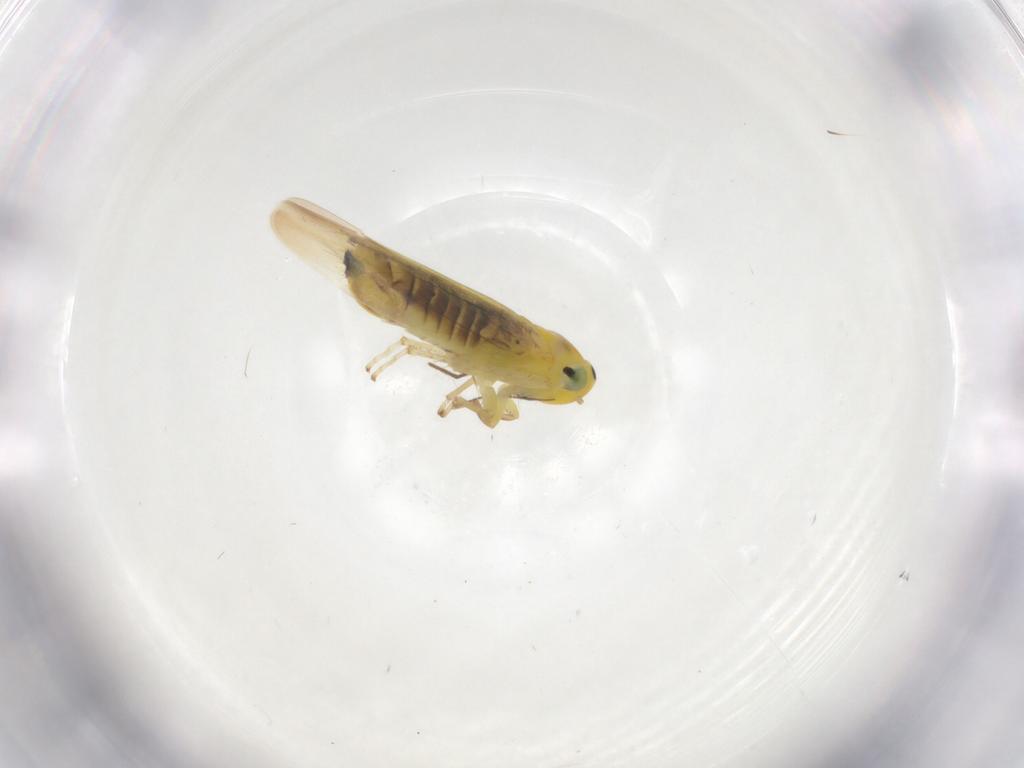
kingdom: Animalia
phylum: Arthropoda
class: Insecta
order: Hemiptera
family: Cicadellidae
